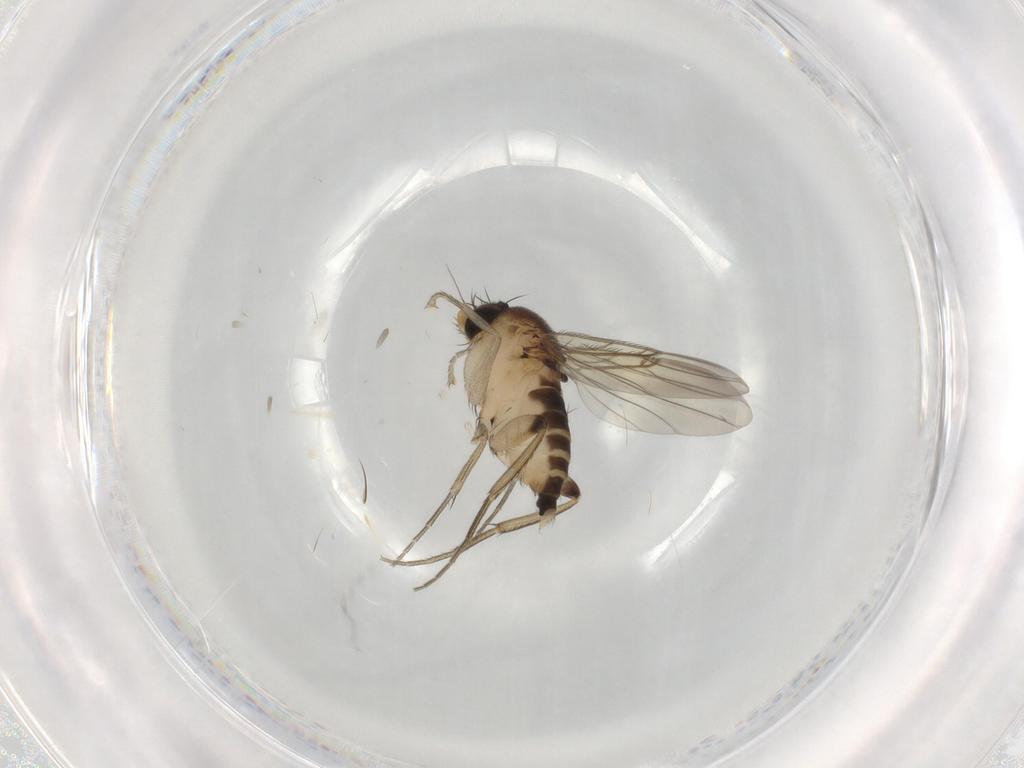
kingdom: Animalia
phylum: Arthropoda
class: Insecta
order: Diptera
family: Phoridae
